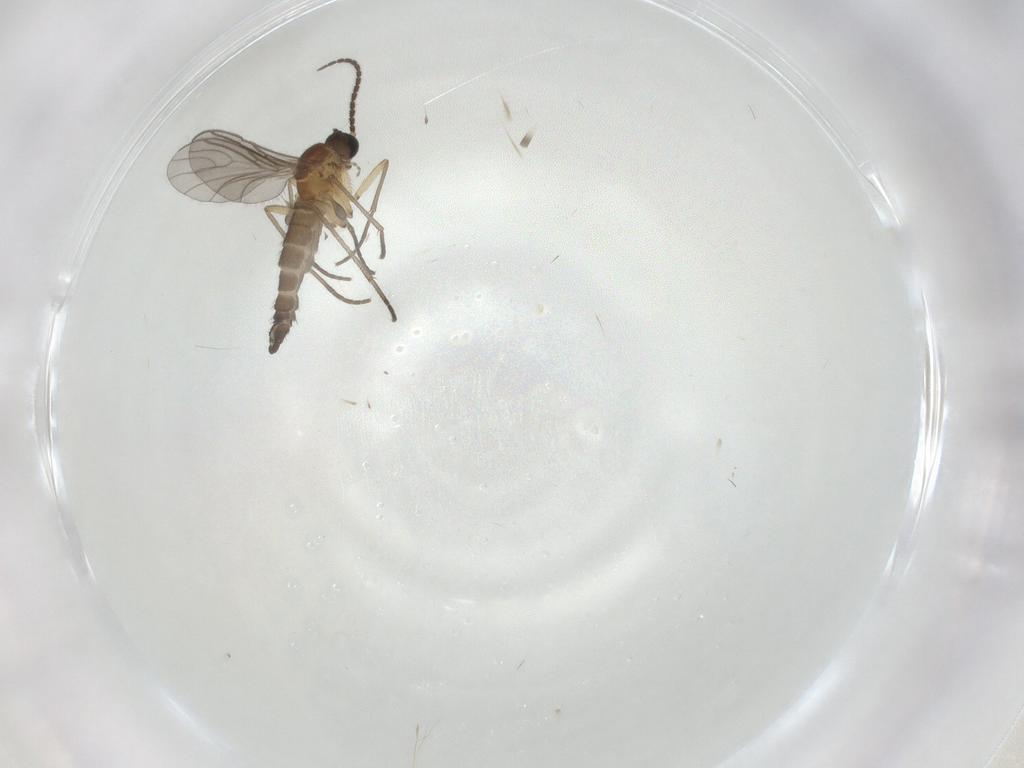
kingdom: Animalia
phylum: Arthropoda
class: Insecta
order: Diptera
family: Sciaridae
